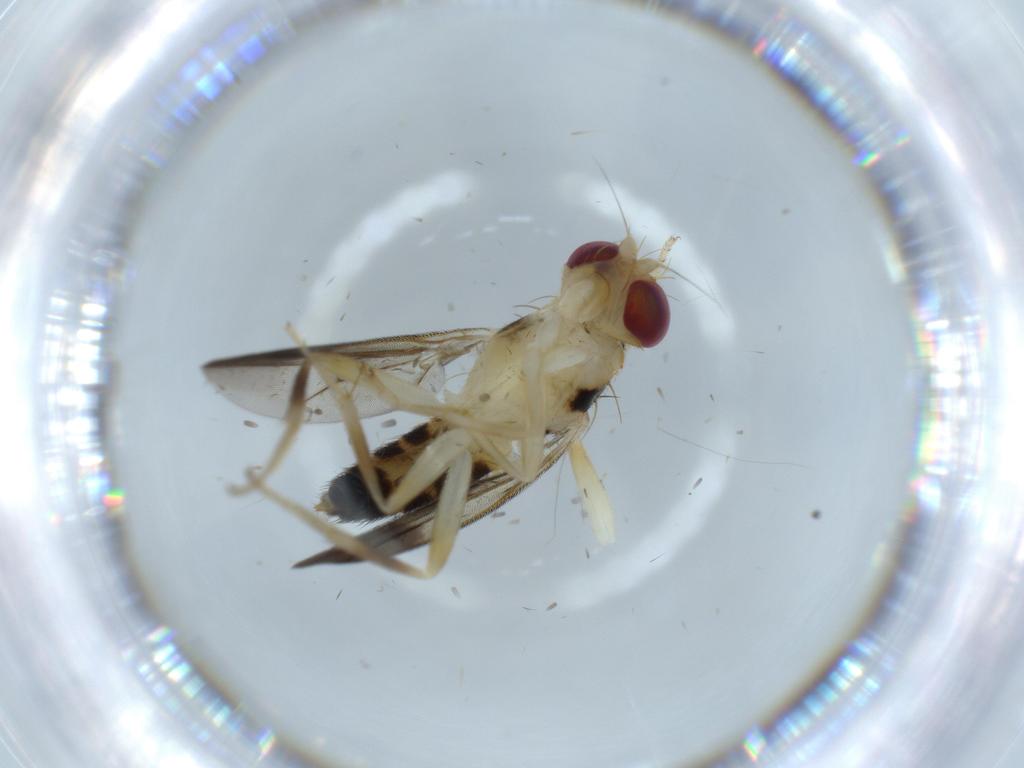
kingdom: Animalia
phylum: Arthropoda
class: Insecta
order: Diptera
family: Clusiidae
